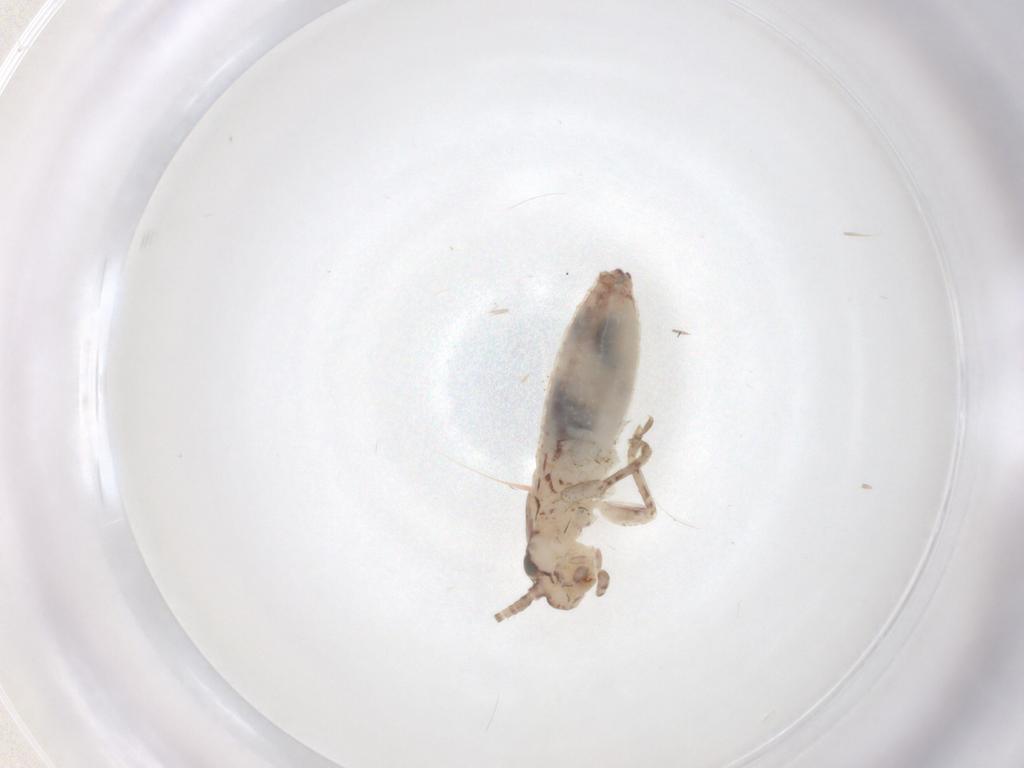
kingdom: Animalia
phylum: Arthropoda
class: Insecta
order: Orthoptera
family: Mogoplistidae
